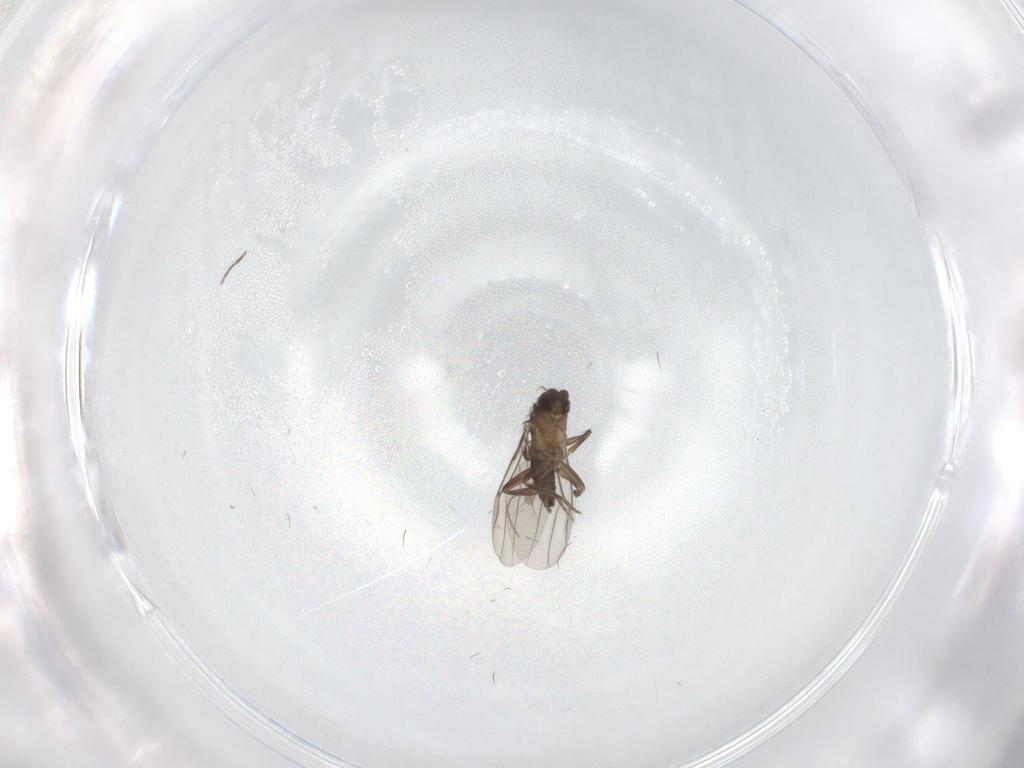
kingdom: Animalia
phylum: Arthropoda
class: Insecta
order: Diptera
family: Ceratopogonidae
